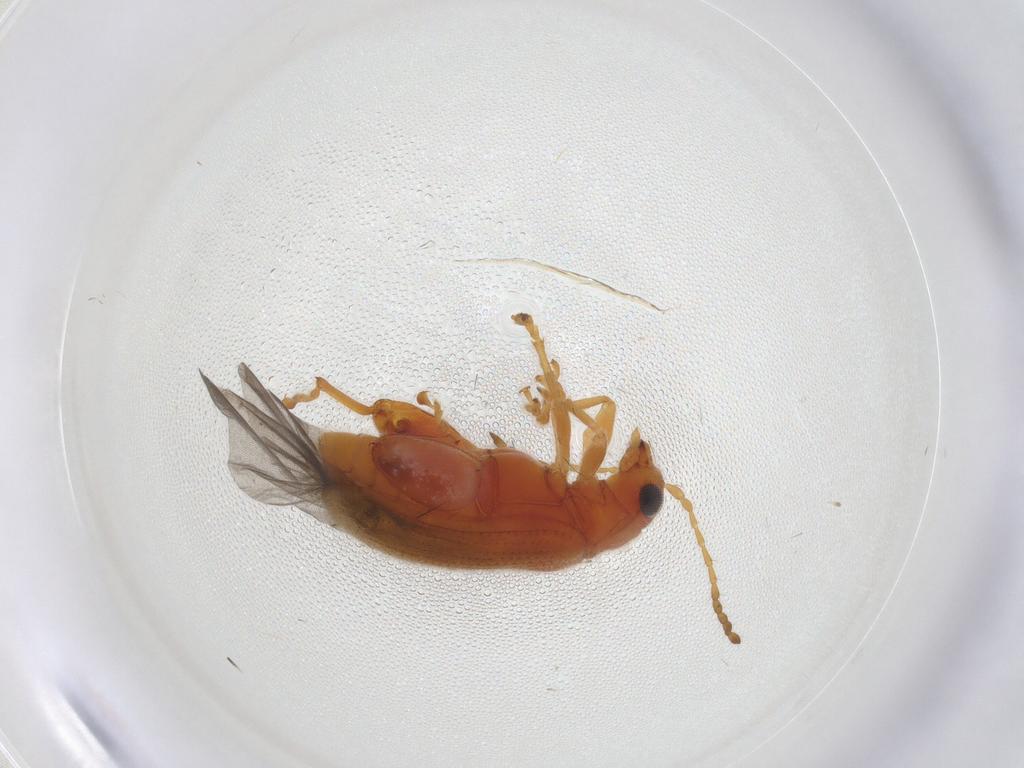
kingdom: Animalia
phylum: Arthropoda
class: Insecta
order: Coleoptera
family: Chrysomelidae
